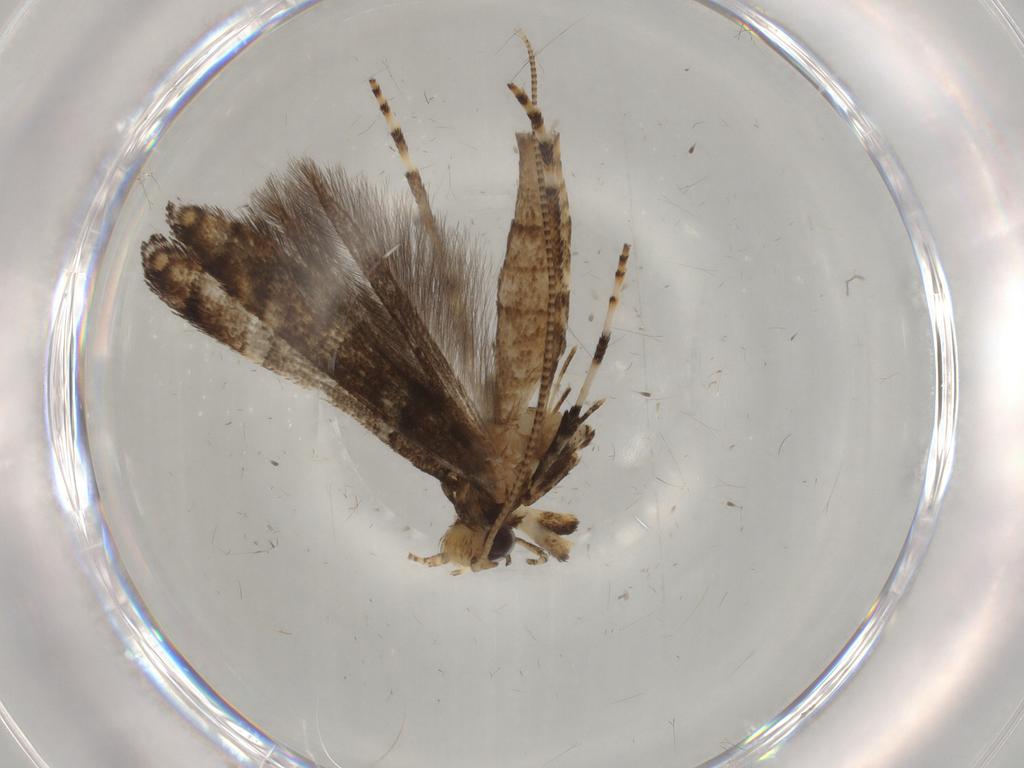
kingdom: Animalia
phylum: Arthropoda
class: Insecta
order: Lepidoptera
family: Gracillariidae
